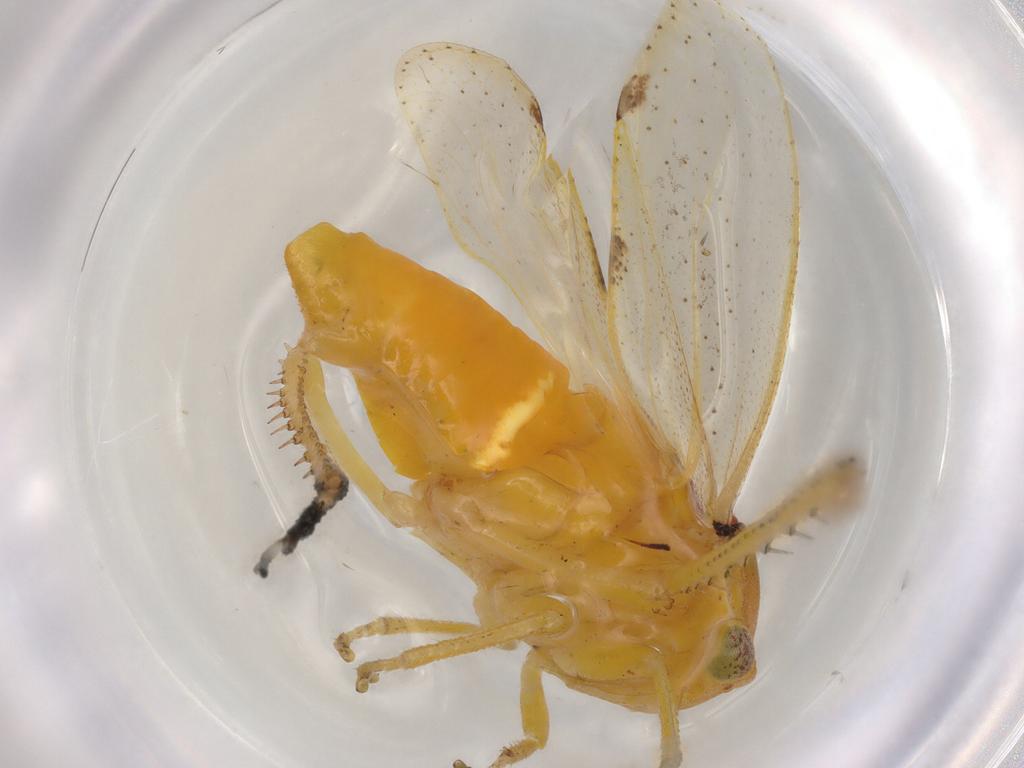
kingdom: Animalia
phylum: Arthropoda
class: Insecta
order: Hemiptera
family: Cicadellidae
